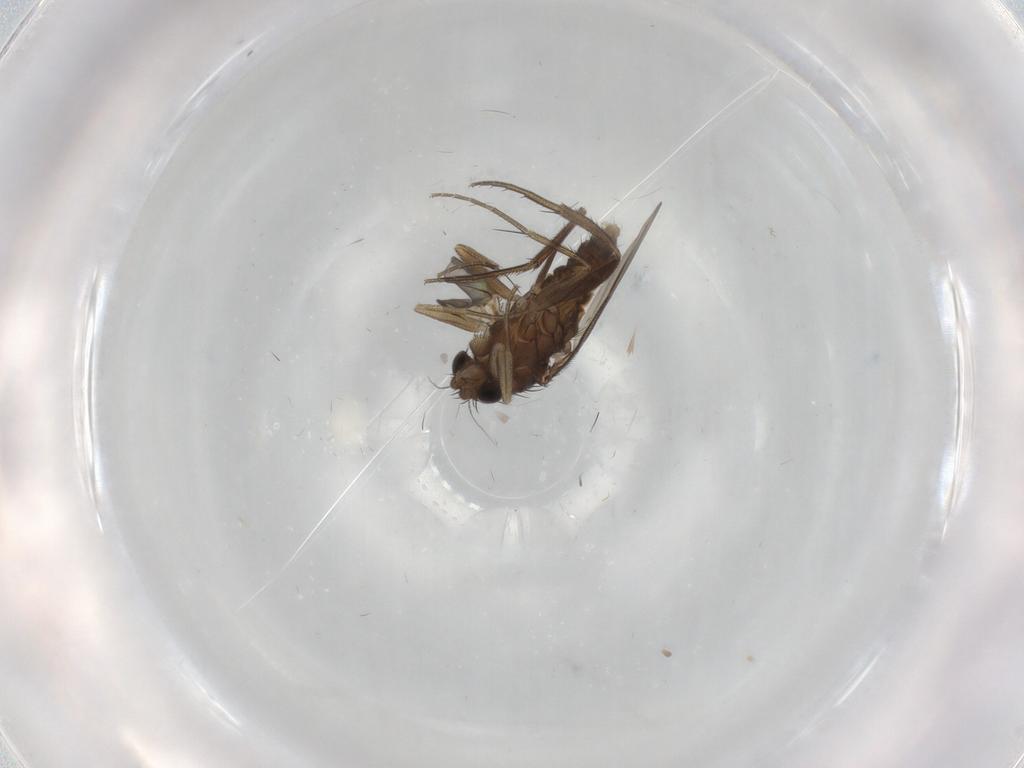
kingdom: Animalia
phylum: Arthropoda
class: Insecta
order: Diptera
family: Phoridae
